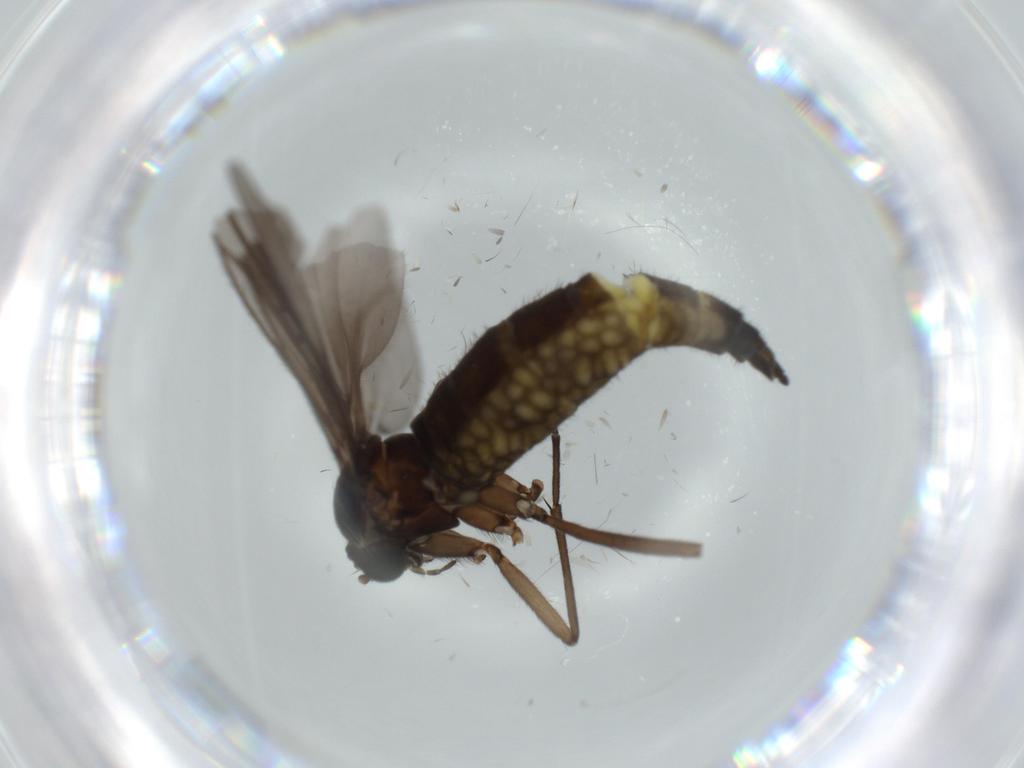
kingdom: Animalia
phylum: Arthropoda
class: Insecta
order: Diptera
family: Sciaridae
